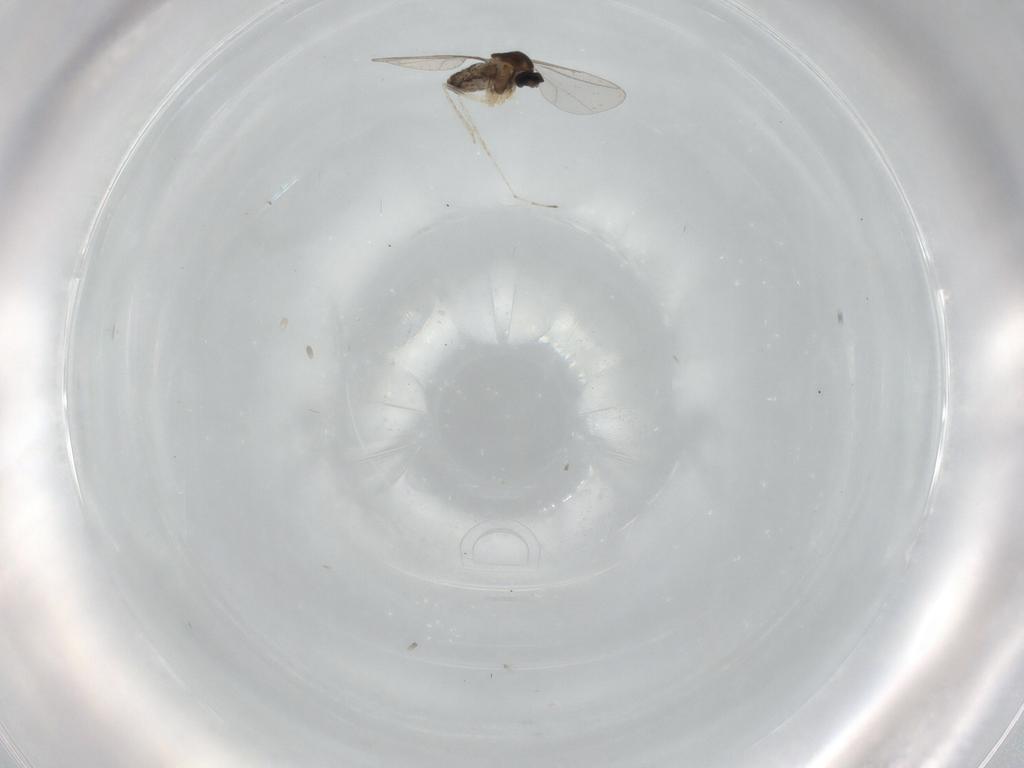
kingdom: Animalia
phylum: Arthropoda
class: Insecta
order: Diptera
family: Cecidomyiidae
